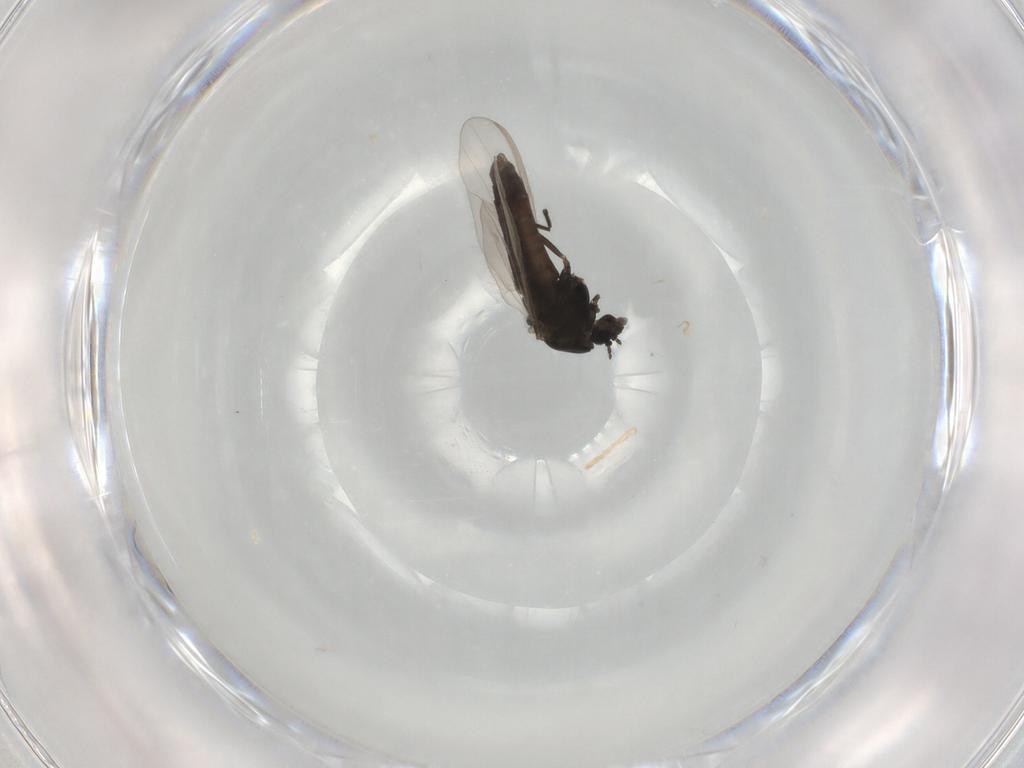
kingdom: Animalia
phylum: Arthropoda
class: Insecta
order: Diptera
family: Chironomidae
